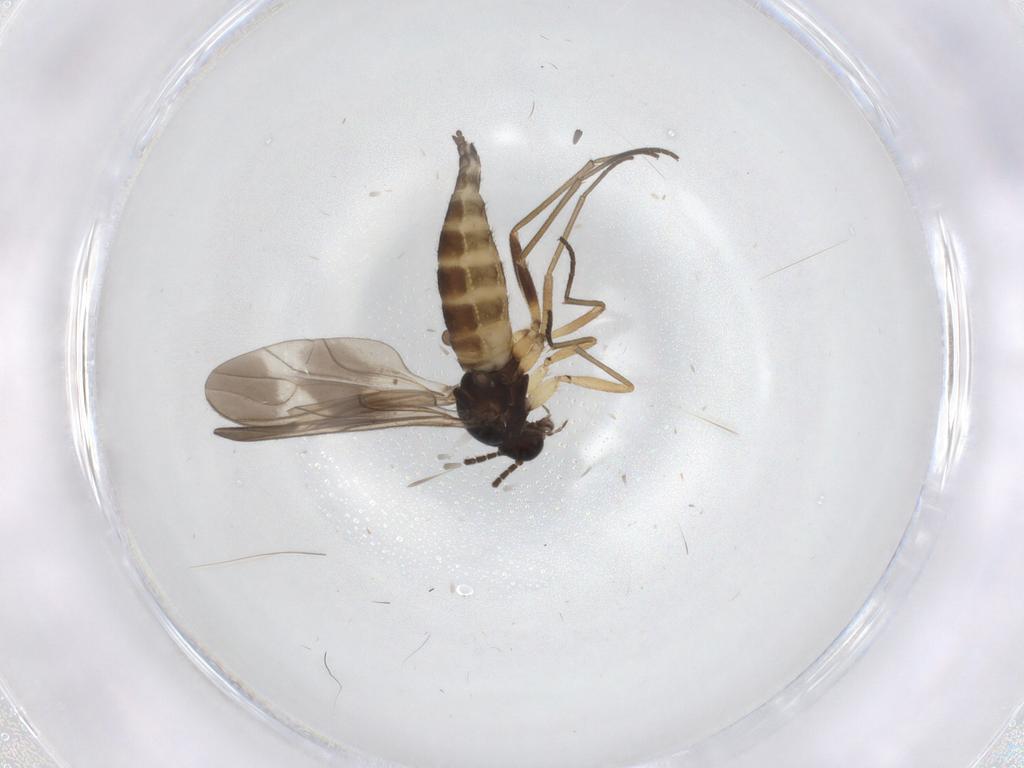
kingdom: Animalia
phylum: Arthropoda
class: Insecta
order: Diptera
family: Sciaridae
